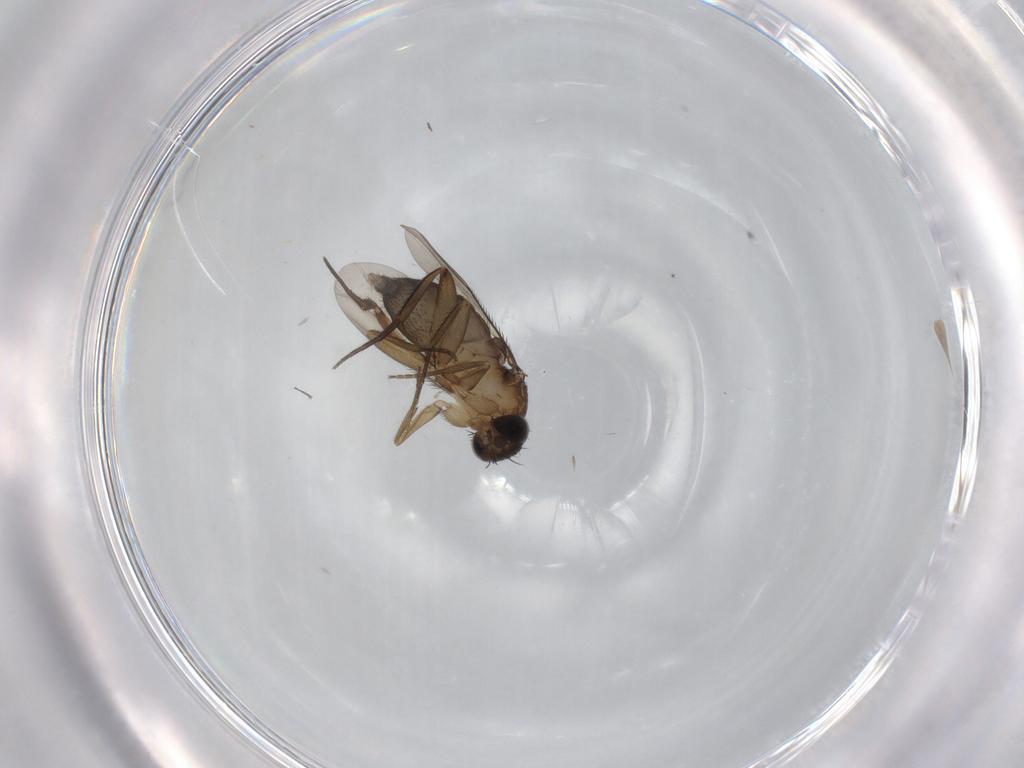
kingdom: Animalia
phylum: Arthropoda
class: Insecta
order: Diptera
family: Phoridae
